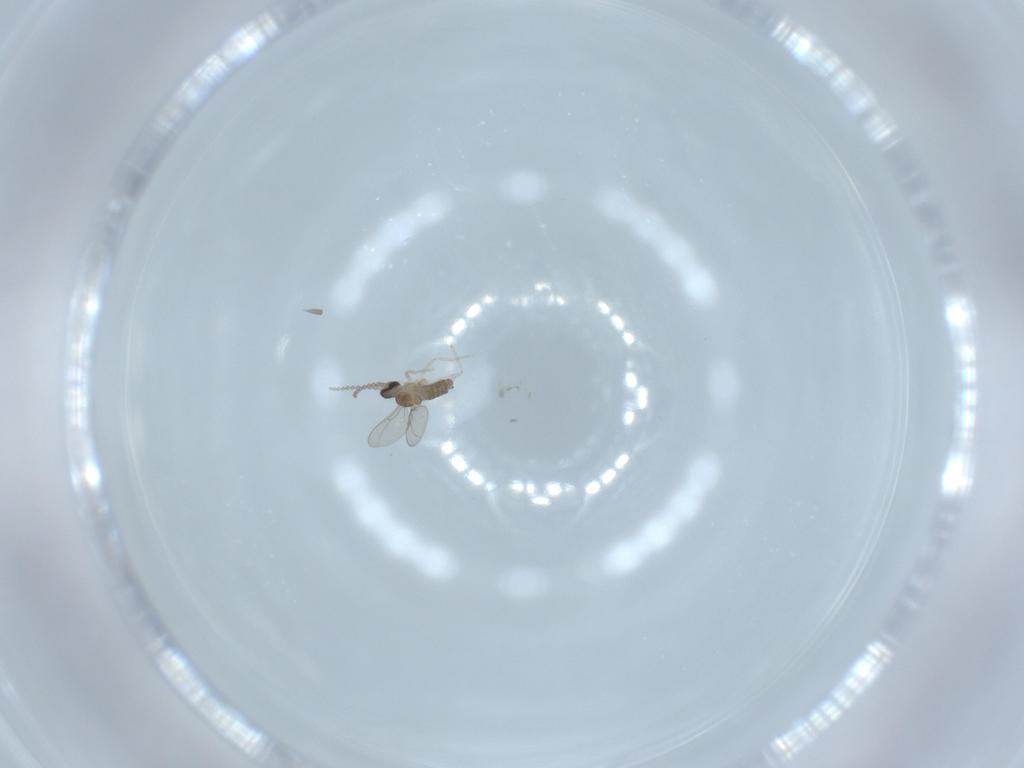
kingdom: Animalia
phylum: Arthropoda
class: Insecta
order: Diptera
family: Cecidomyiidae
